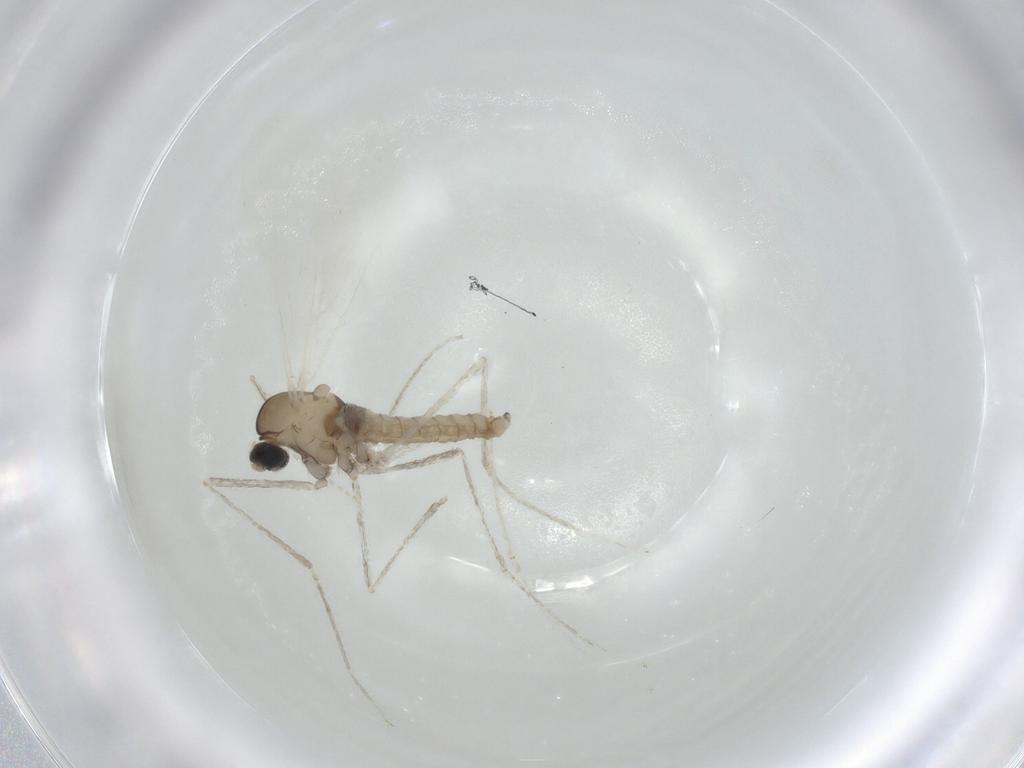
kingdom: Animalia
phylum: Arthropoda
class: Insecta
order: Diptera
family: Cecidomyiidae
